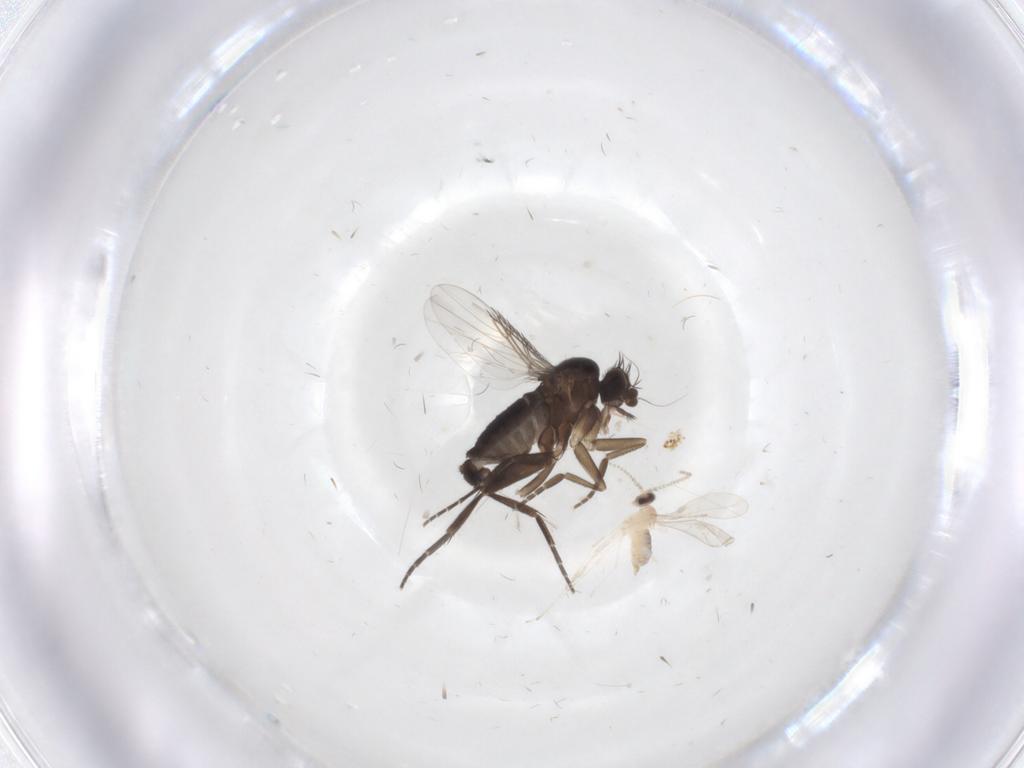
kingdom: Animalia
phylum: Arthropoda
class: Insecta
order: Diptera
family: Phoridae
